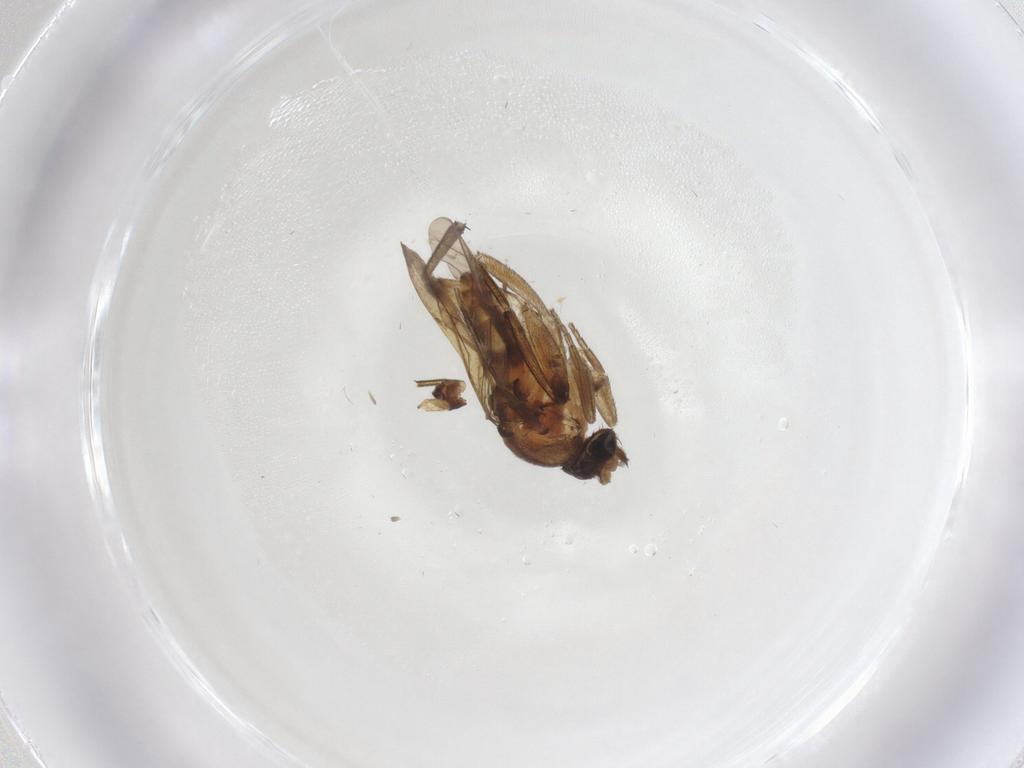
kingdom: Animalia
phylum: Arthropoda
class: Insecta
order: Diptera
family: Phoridae
